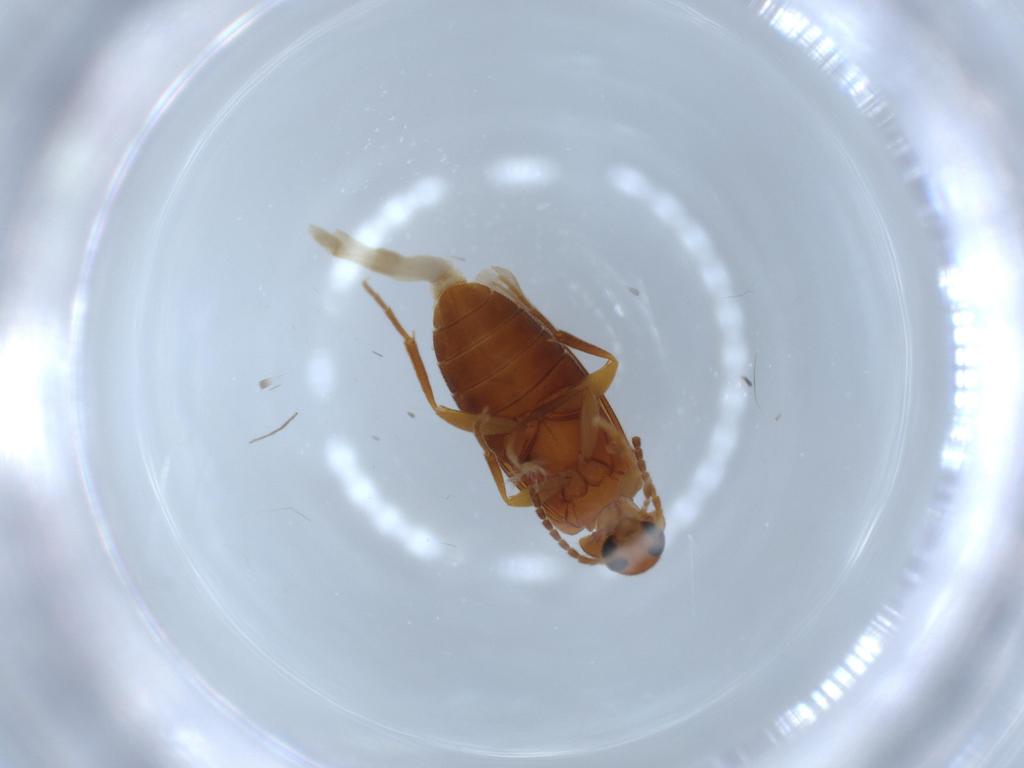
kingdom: Animalia
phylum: Arthropoda
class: Insecta
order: Coleoptera
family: Scraptiidae
